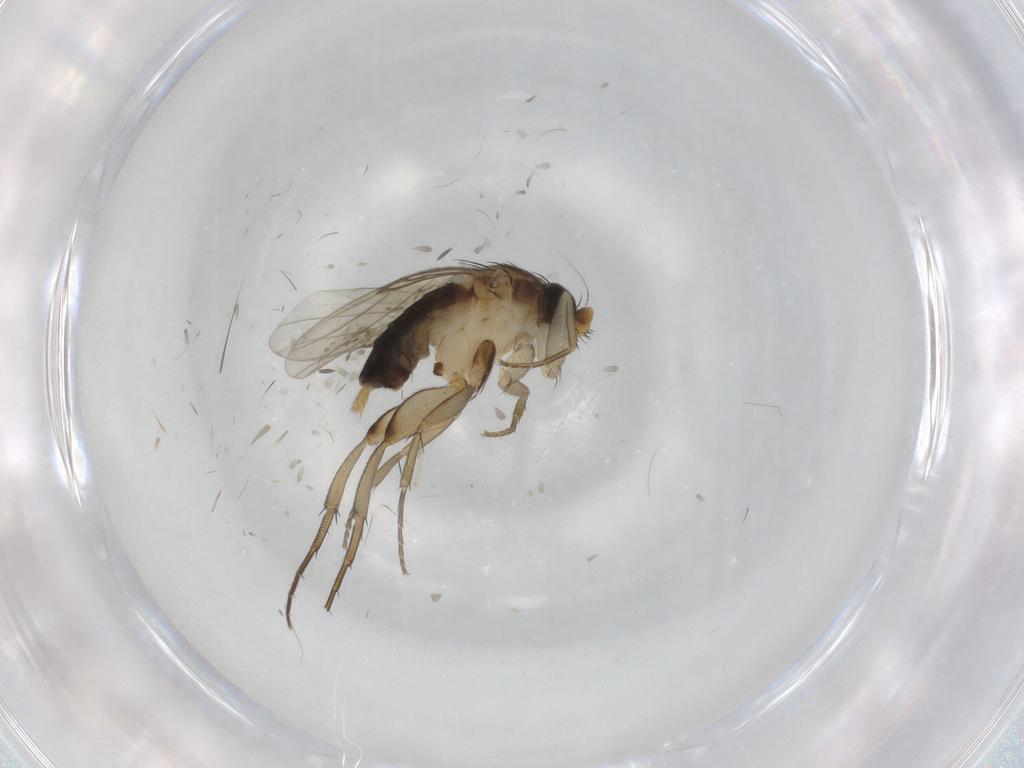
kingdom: Animalia
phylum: Arthropoda
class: Insecta
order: Diptera
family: Phoridae
